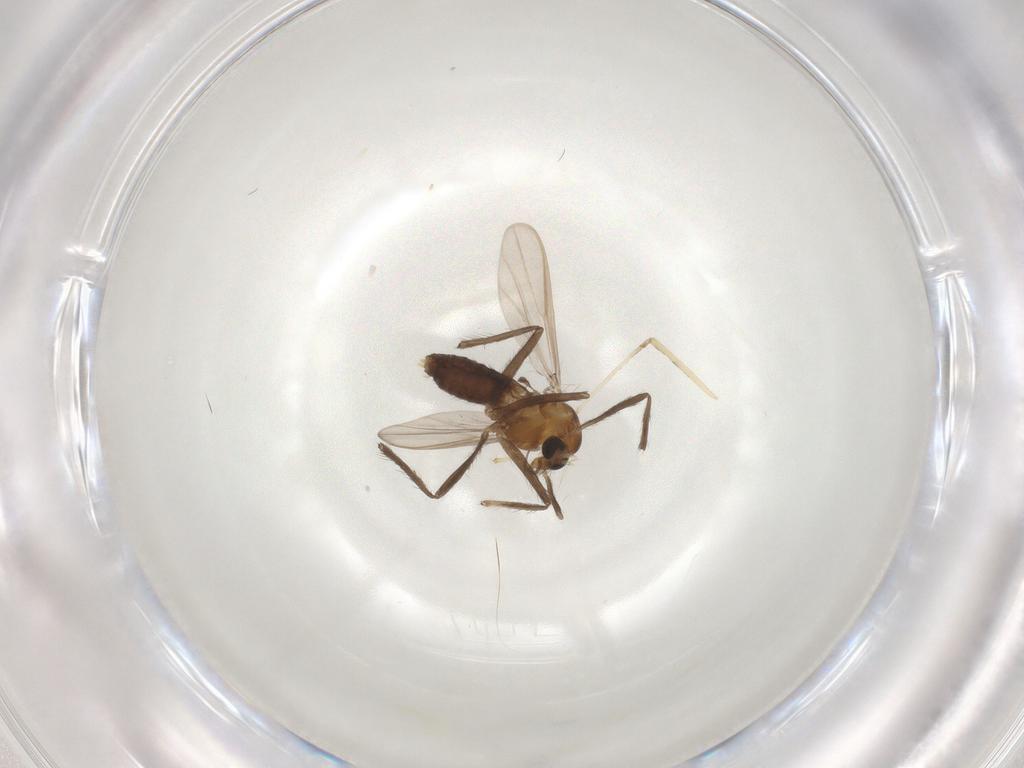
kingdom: Animalia
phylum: Arthropoda
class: Insecta
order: Diptera
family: Chironomidae
